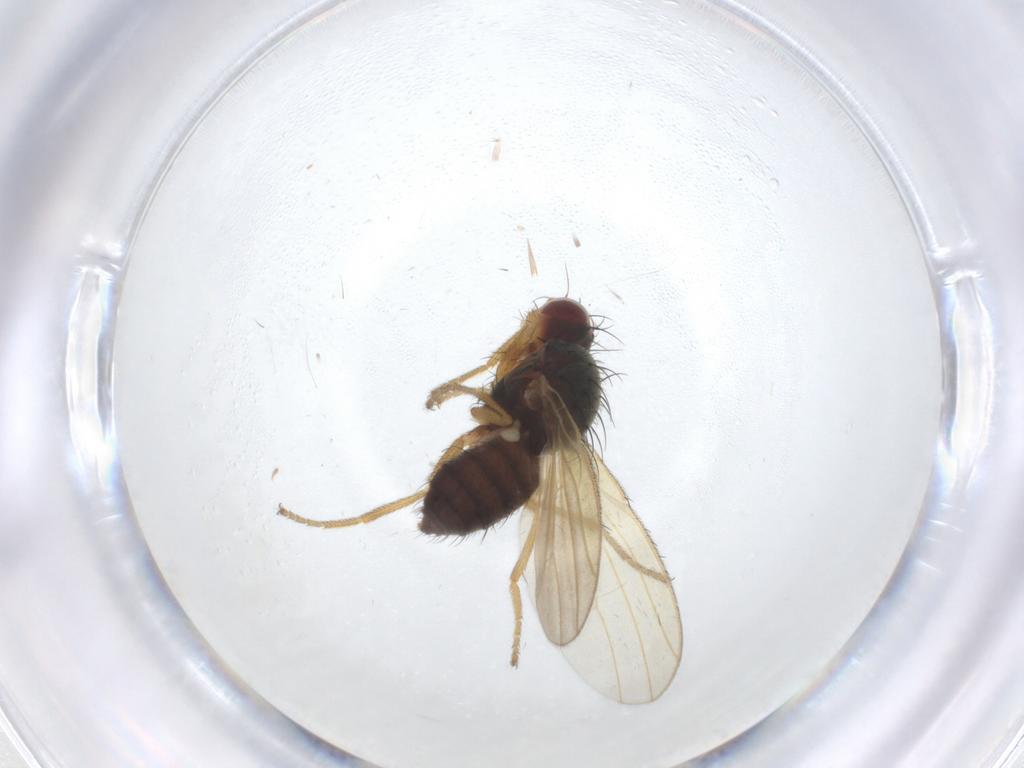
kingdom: Animalia
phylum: Arthropoda
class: Insecta
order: Diptera
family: Heleomyzidae
